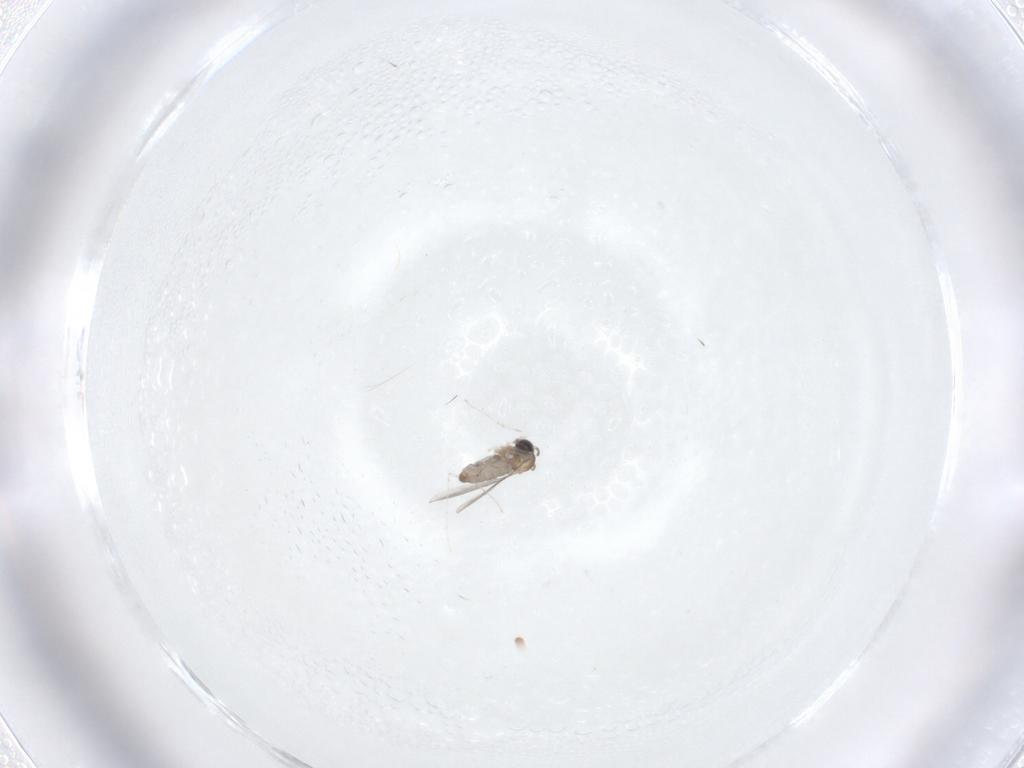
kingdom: Animalia
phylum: Arthropoda
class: Insecta
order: Diptera
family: Cecidomyiidae
